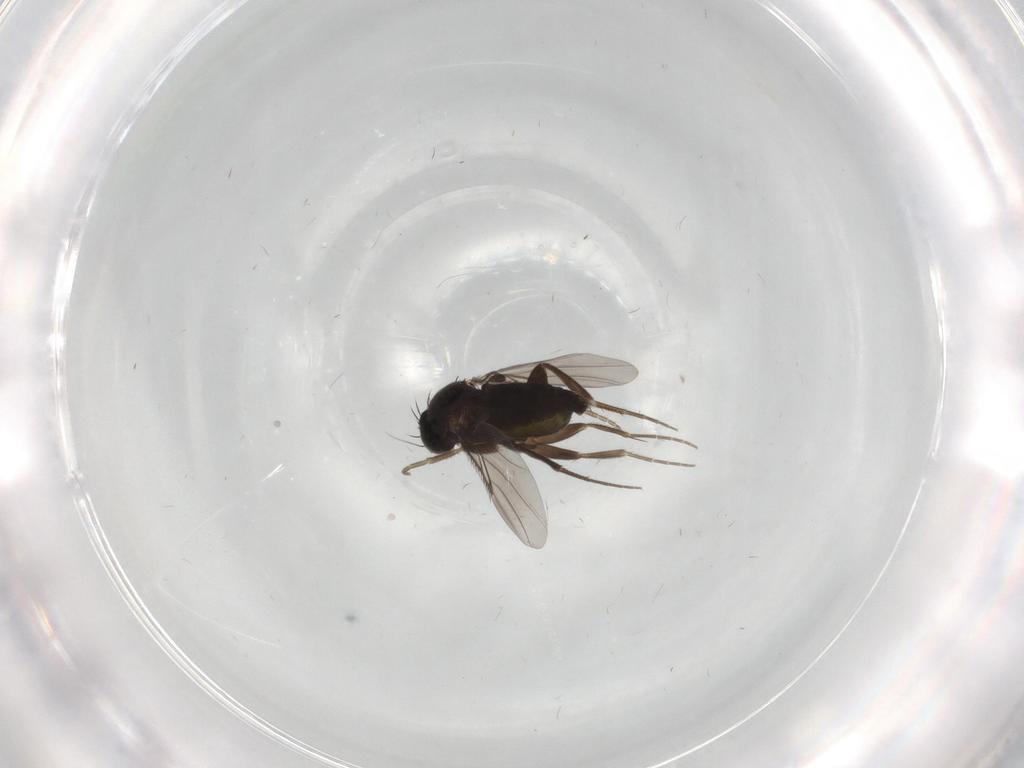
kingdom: Animalia
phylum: Arthropoda
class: Insecta
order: Diptera
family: Phoridae
